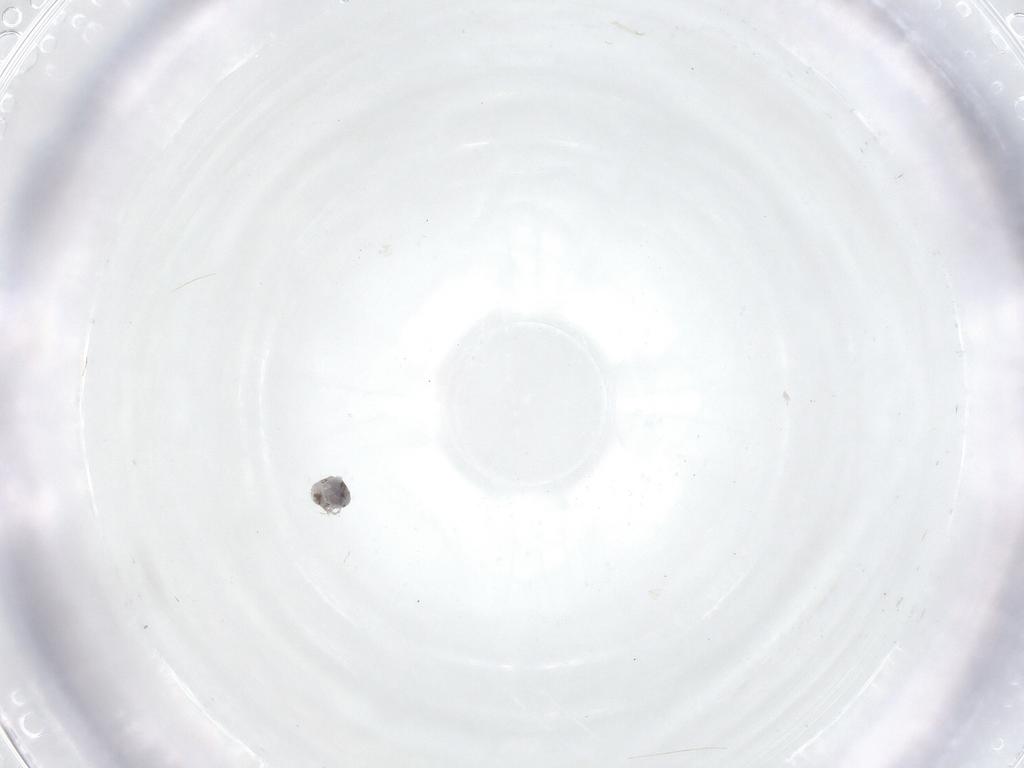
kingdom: Animalia
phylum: Arthropoda
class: Arachnida
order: Trombidiformes
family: Pionidae
